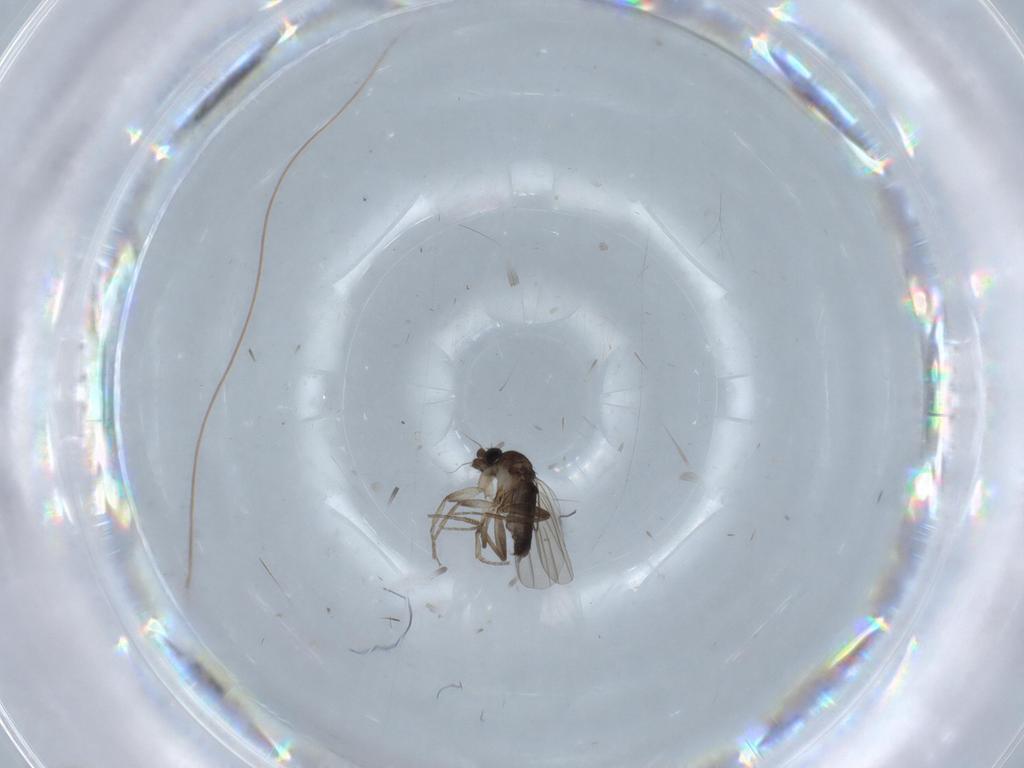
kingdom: Animalia
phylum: Arthropoda
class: Insecta
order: Diptera
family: Phoridae
